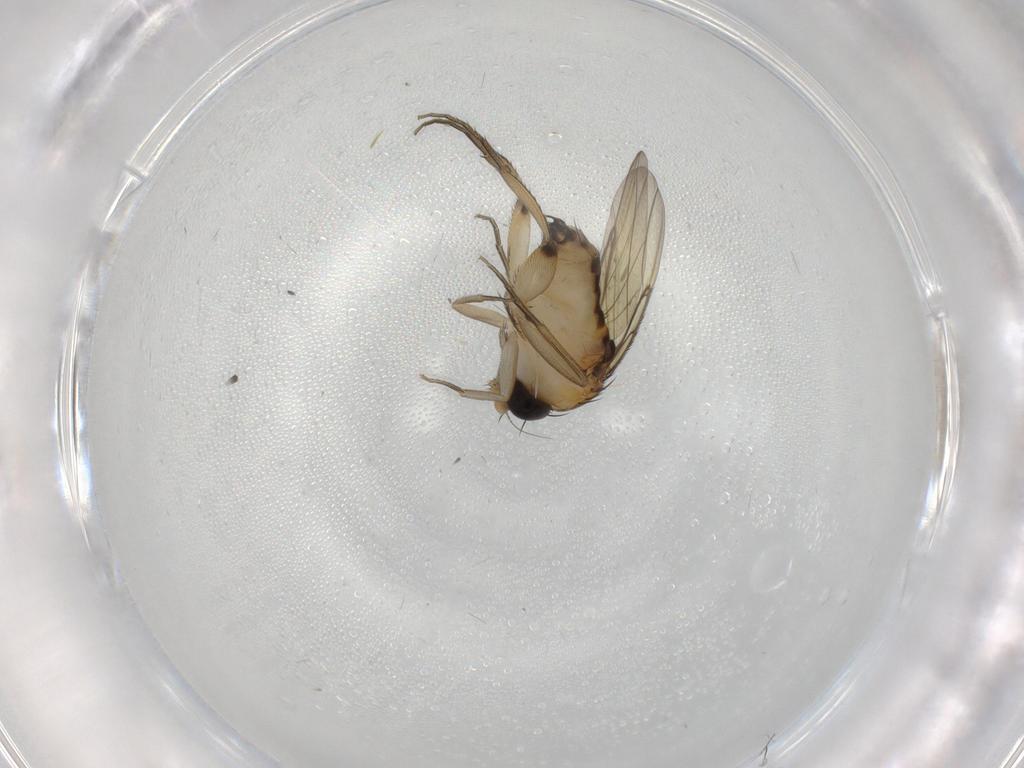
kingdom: Animalia
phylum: Arthropoda
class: Insecta
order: Diptera
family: Phoridae
